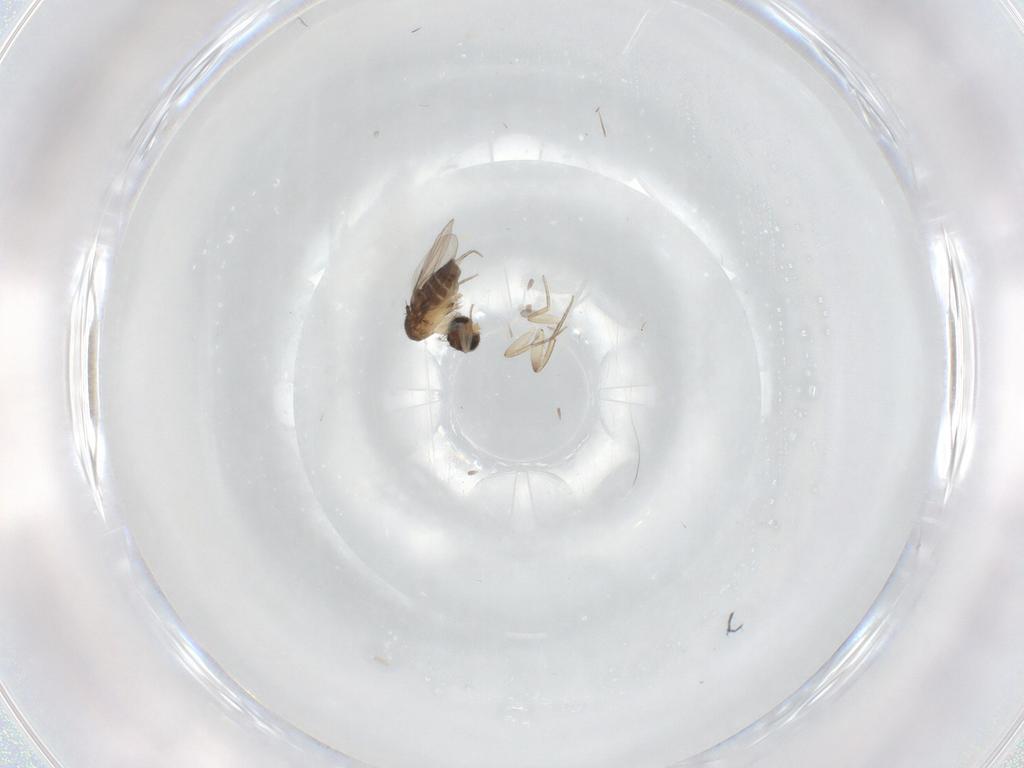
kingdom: Animalia
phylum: Arthropoda
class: Insecta
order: Diptera
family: Phoridae
